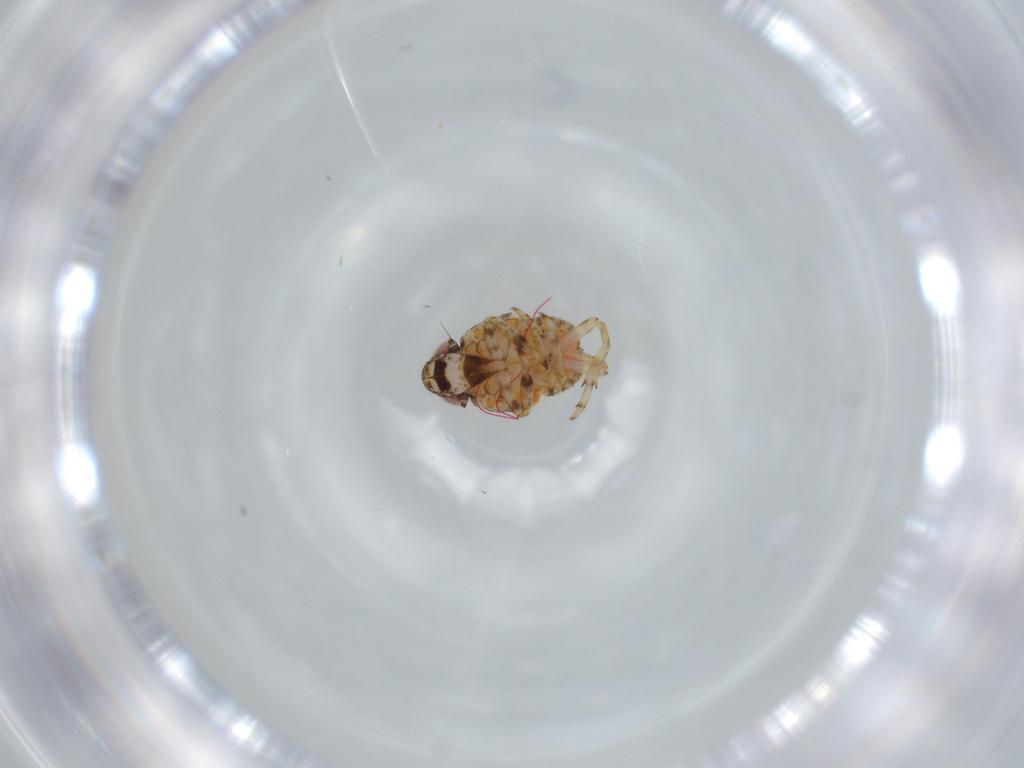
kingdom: Animalia
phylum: Arthropoda
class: Insecta
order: Hemiptera
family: Issidae
